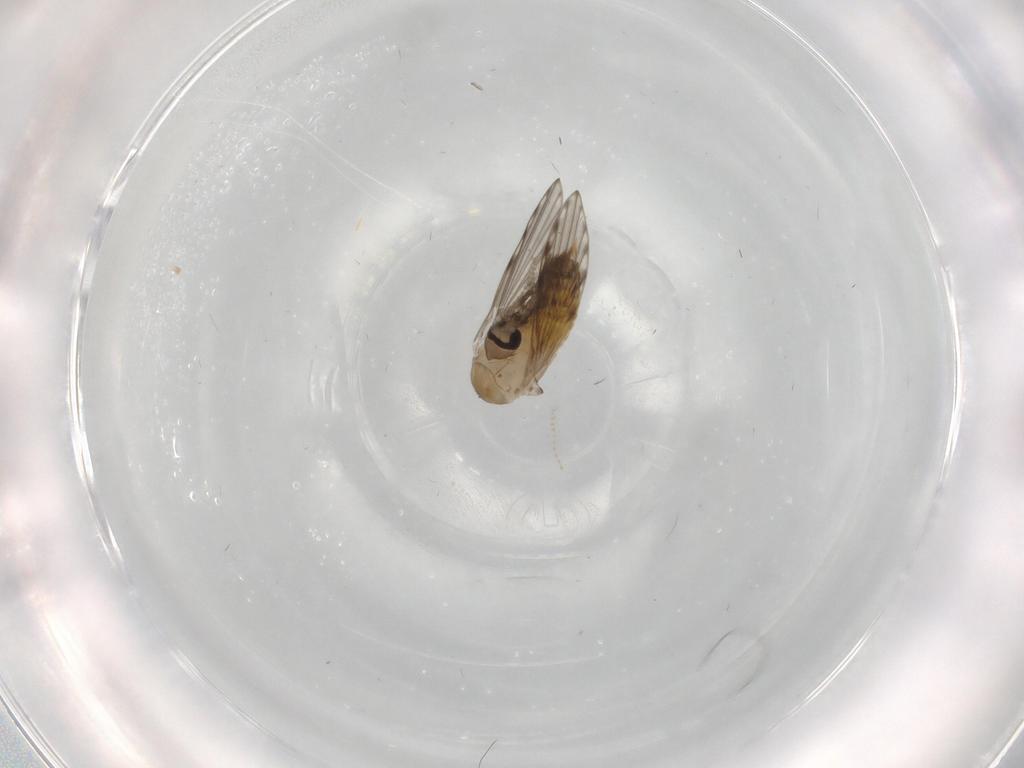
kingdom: Animalia
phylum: Arthropoda
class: Insecta
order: Diptera
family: Psychodidae
